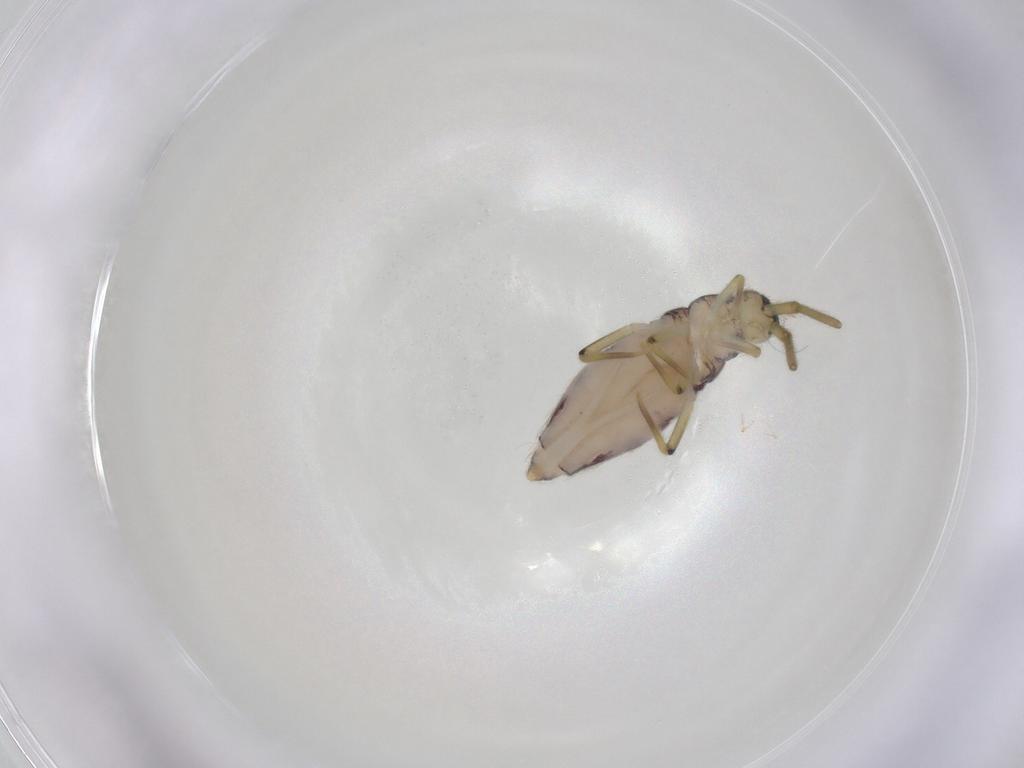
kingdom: Animalia
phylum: Arthropoda
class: Collembola
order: Entomobryomorpha
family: Entomobryidae
